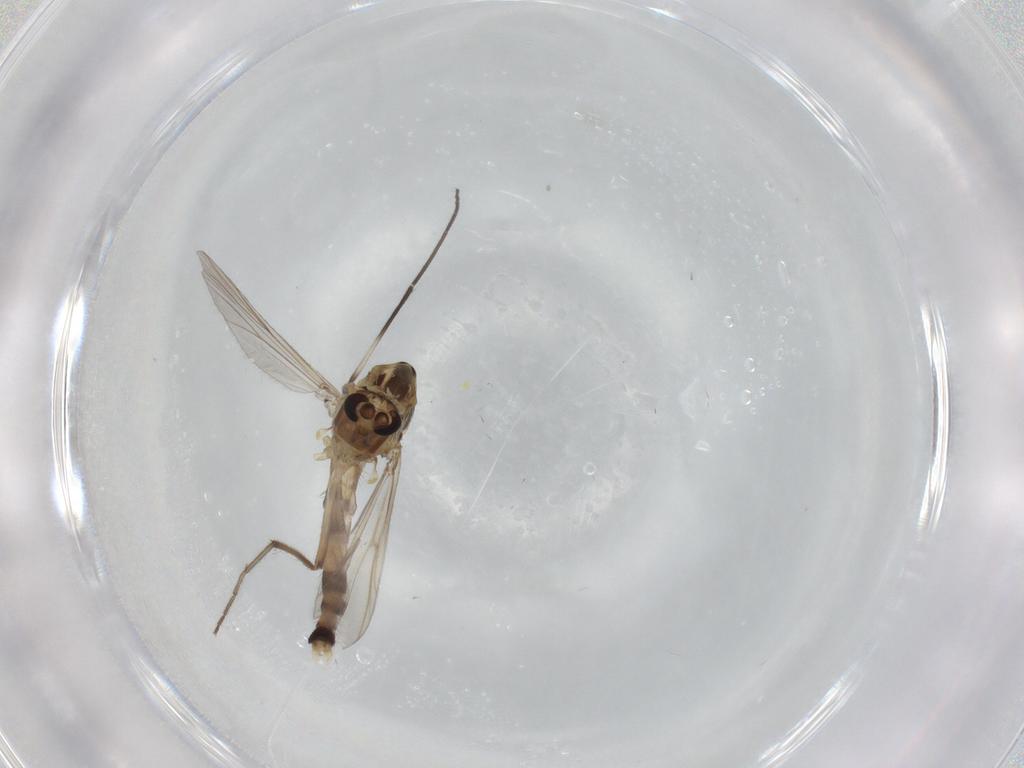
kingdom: Animalia
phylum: Arthropoda
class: Insecta
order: Diptera
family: Chironomidae
